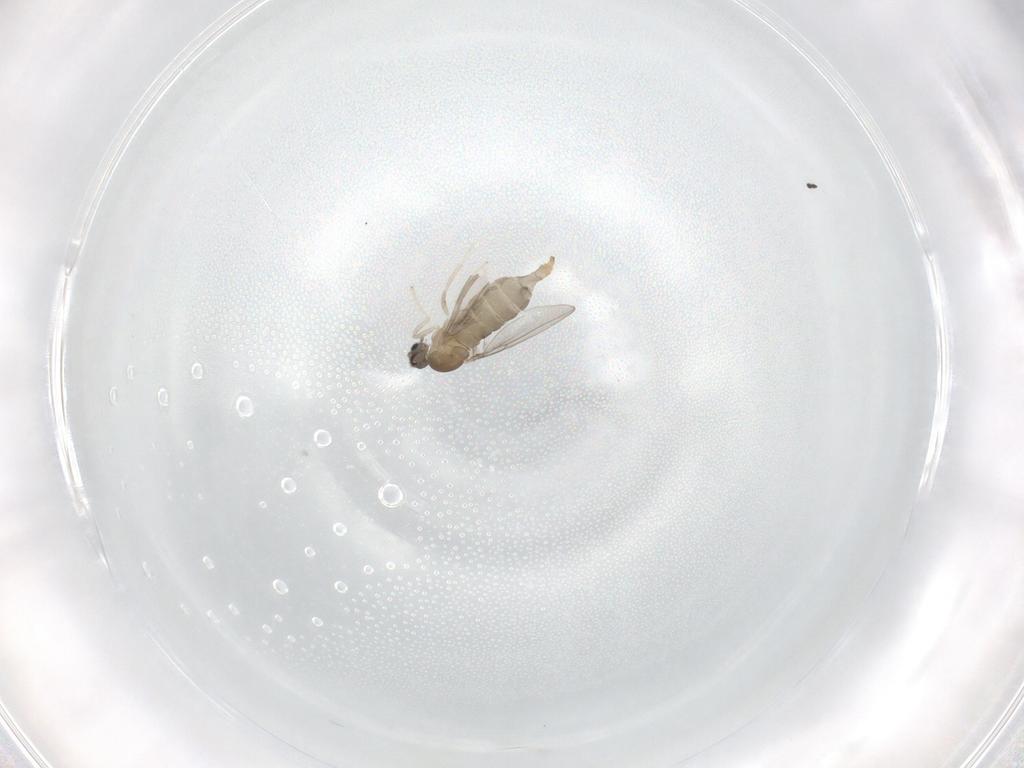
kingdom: Animalia
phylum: Arthropoda
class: Insecta
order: Diptera
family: Cecidomyiidae
